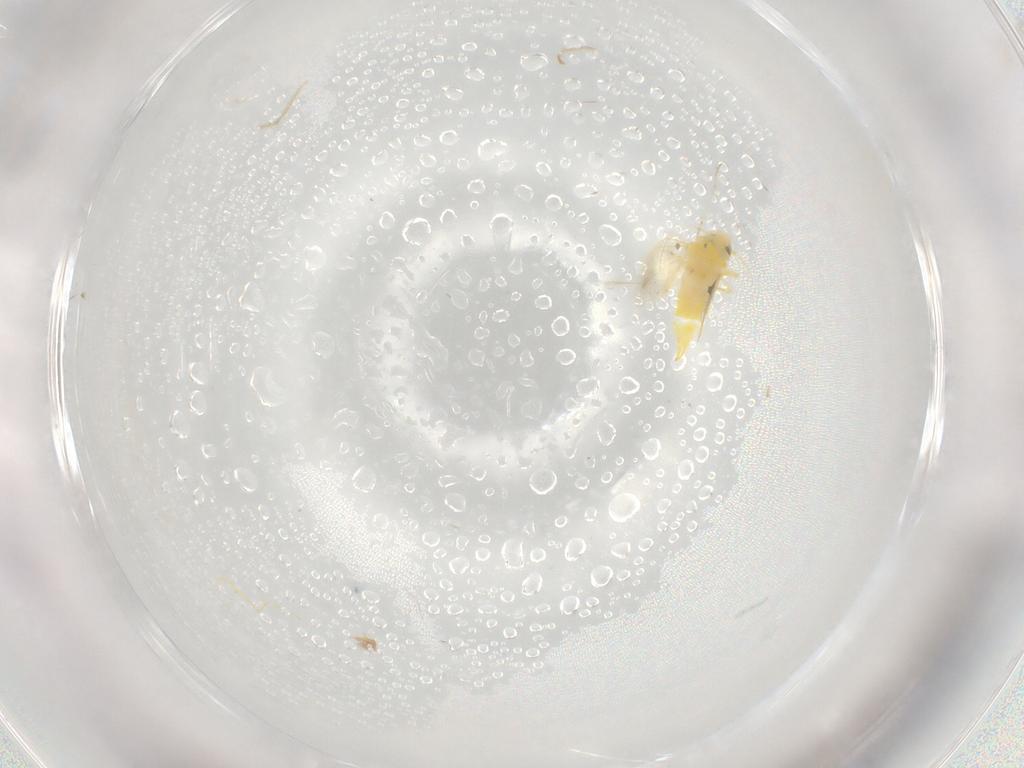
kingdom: Animalia
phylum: Arthropoda
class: Insecta
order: Hemiptera
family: Aleyrodidae
